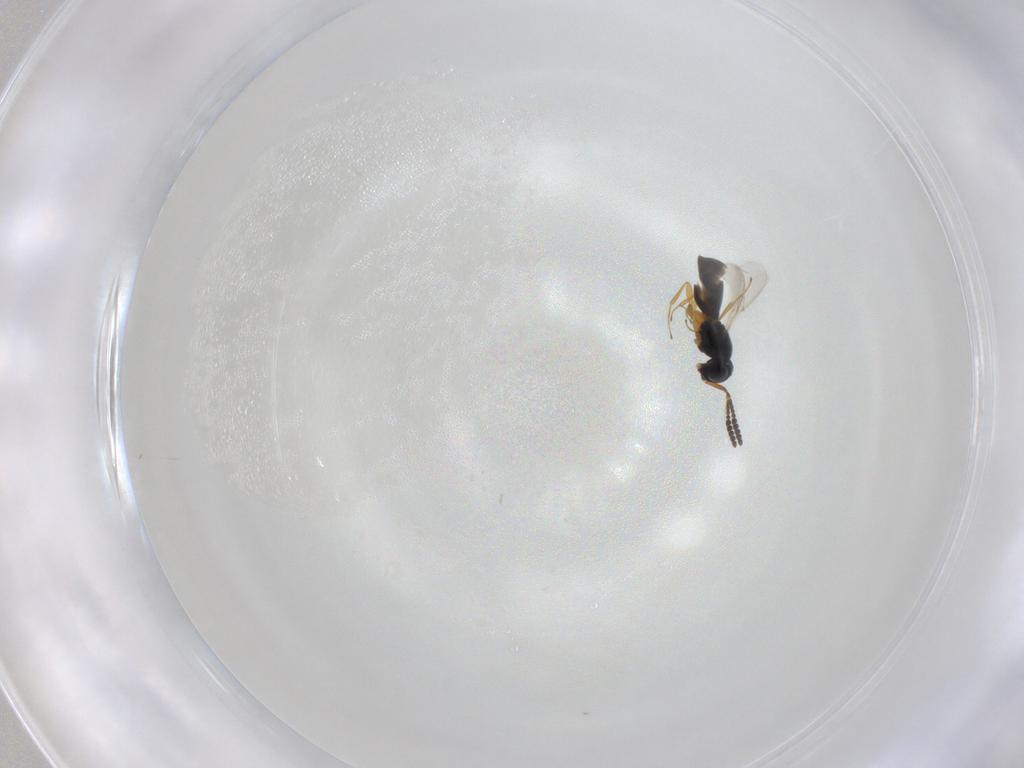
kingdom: Animalia
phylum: Arthropoda
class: Insecta
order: Hymenoptera
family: Scelionidae
